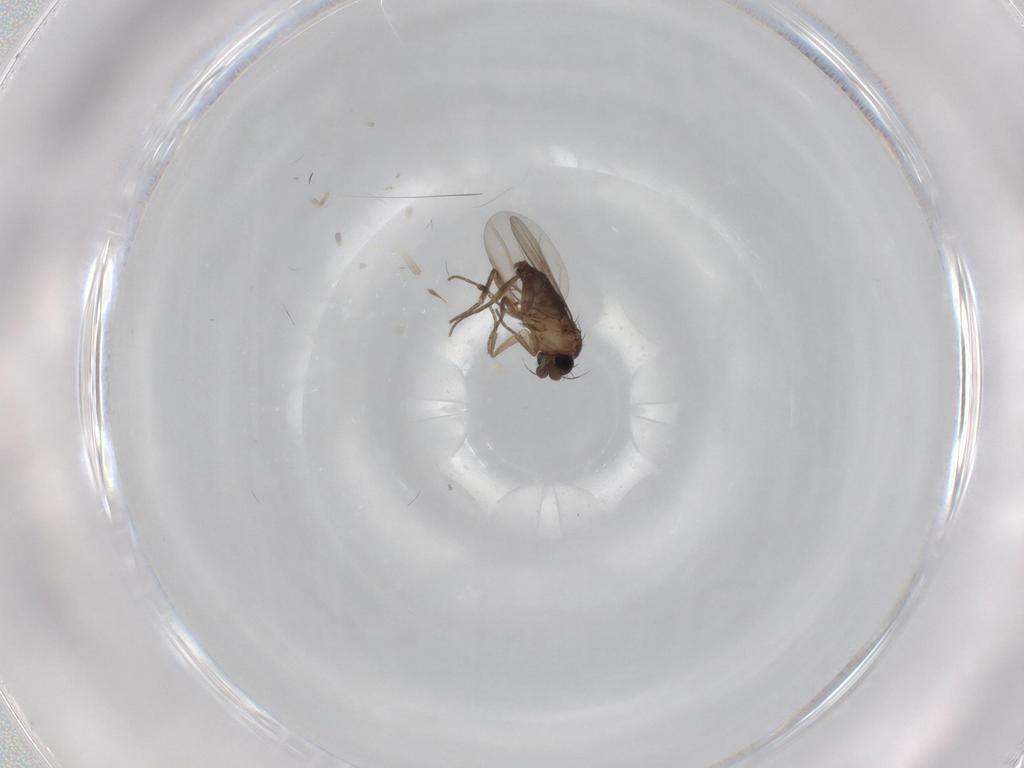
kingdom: Animalia
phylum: Arthropoda
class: Insecta
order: Diptera
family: Psychodidae
